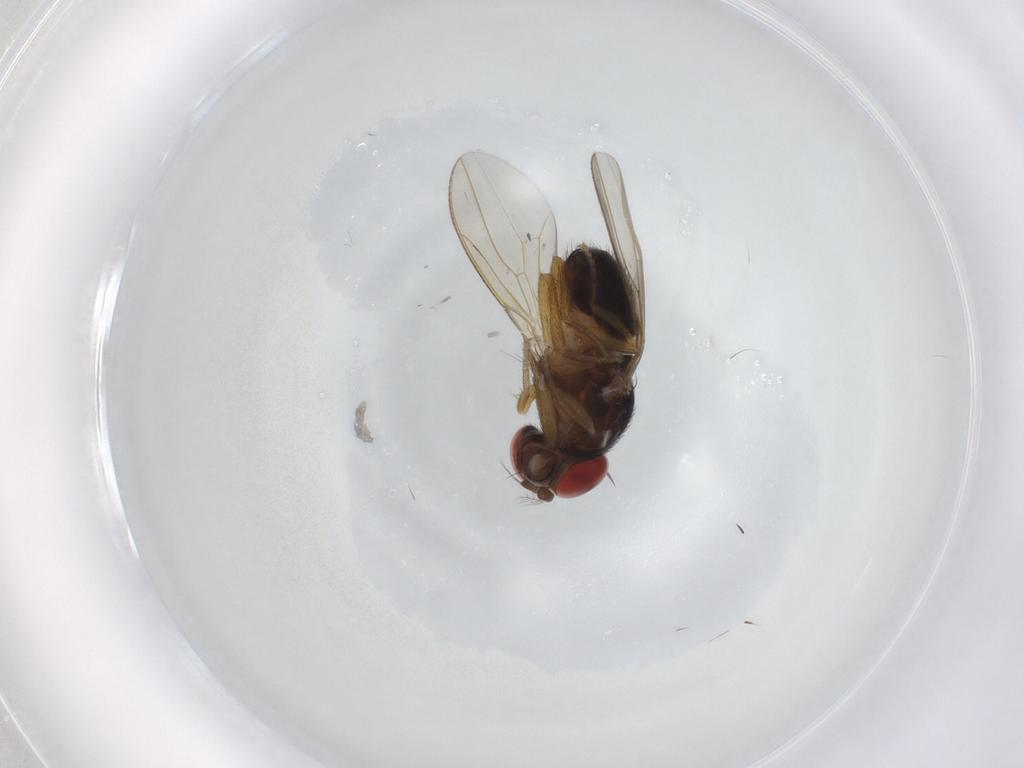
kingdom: Animalia
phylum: Arthropoda
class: Insecta
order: Diptera
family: Drosophilidae
